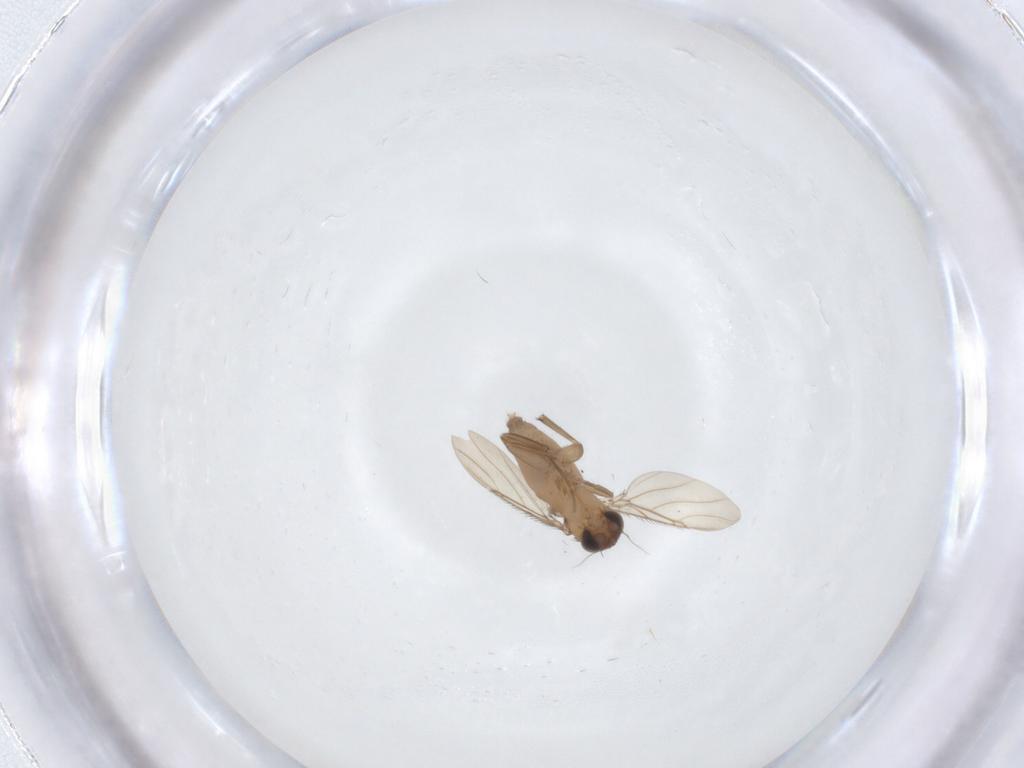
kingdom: Animalia
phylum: Arthropoda
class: Insecta
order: Diptera
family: Phoridae
